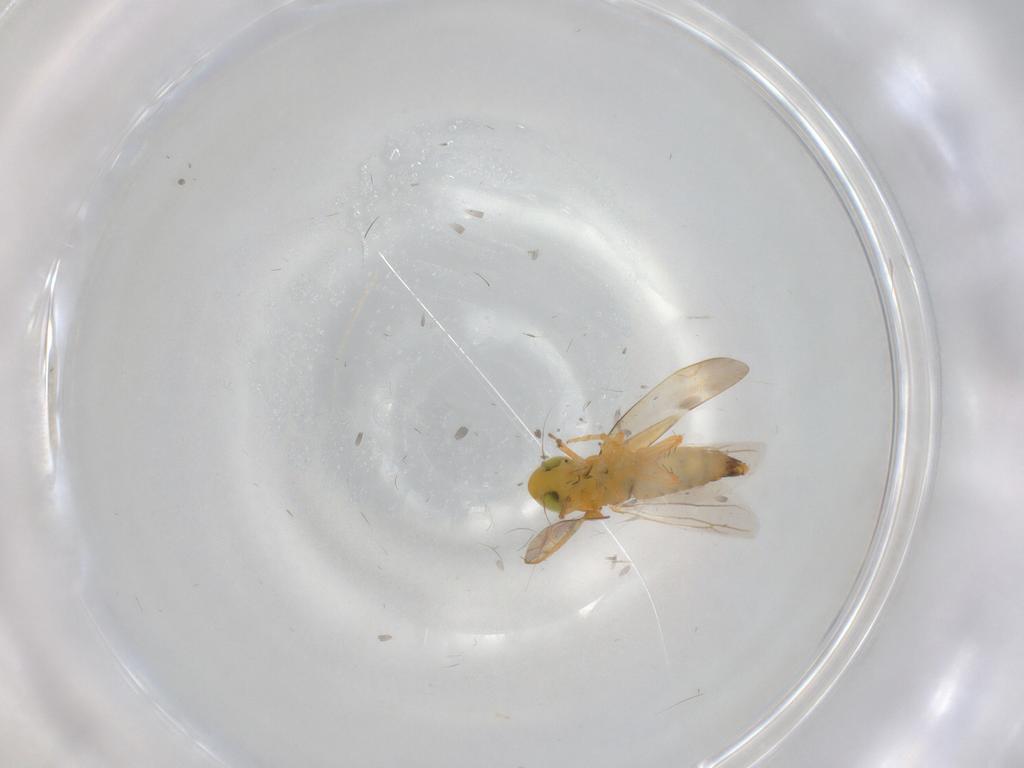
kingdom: Animalia
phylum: Arthropoda
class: Insecta
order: Hemiptera
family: Cicadellidae
